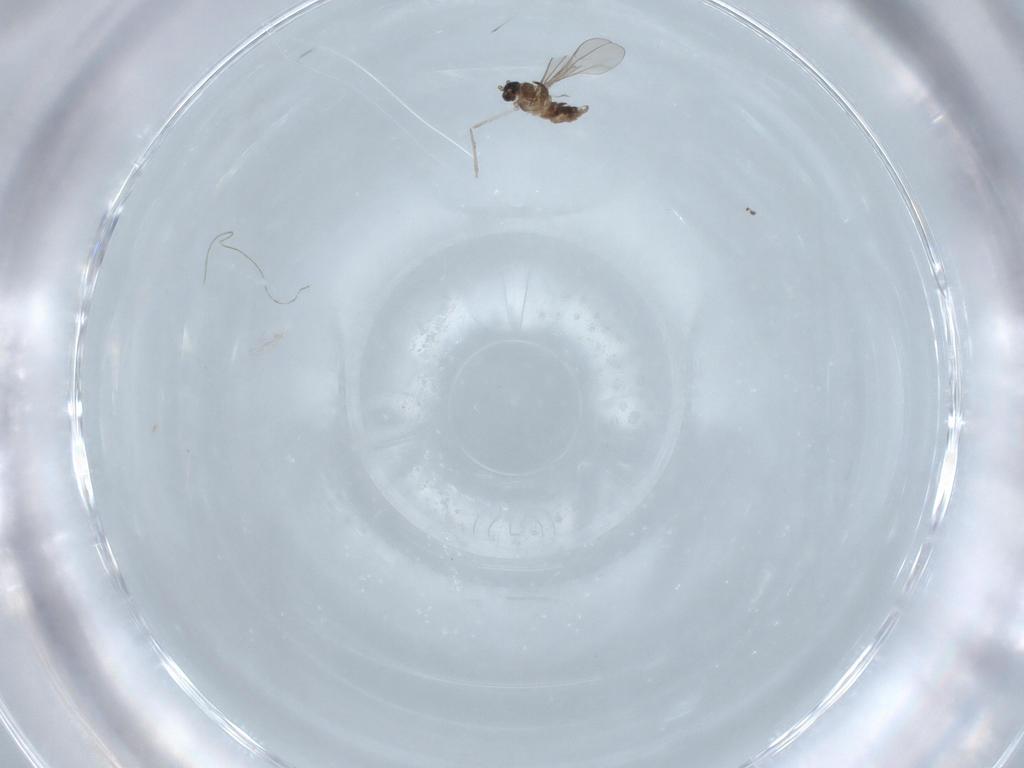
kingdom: Animalia
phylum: Arthropoda
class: Insecta
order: Diptera
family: Chironomidae
